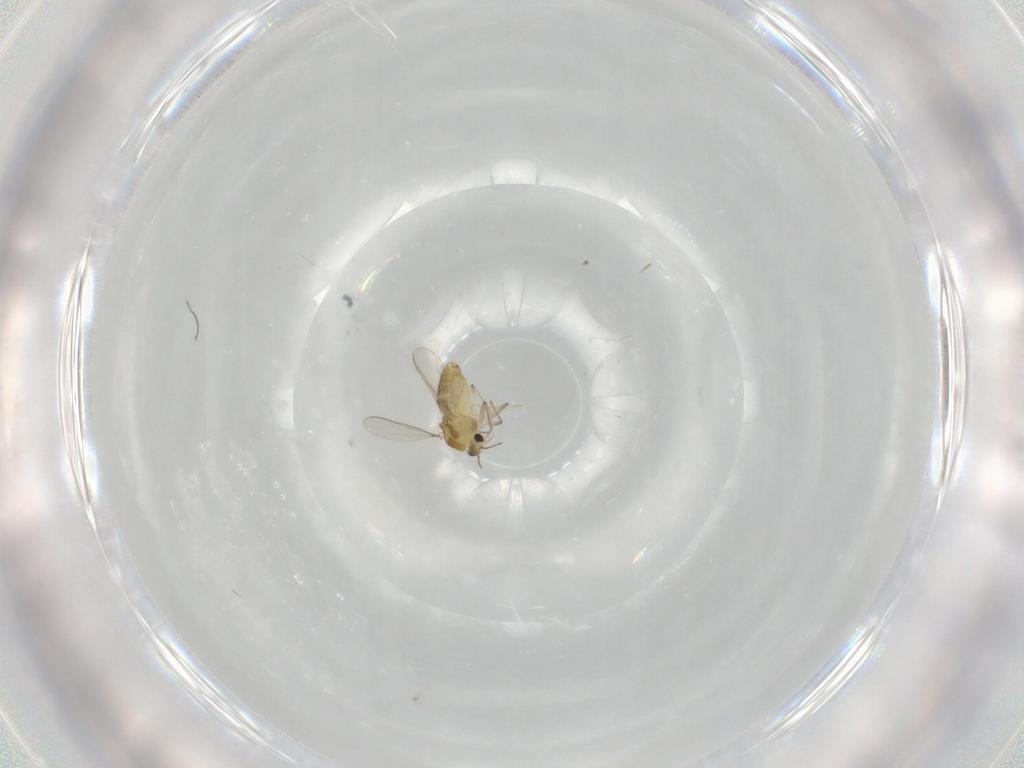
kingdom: Animalia
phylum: Arthropoda
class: Insecta
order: Diptera
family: Chironomidae
